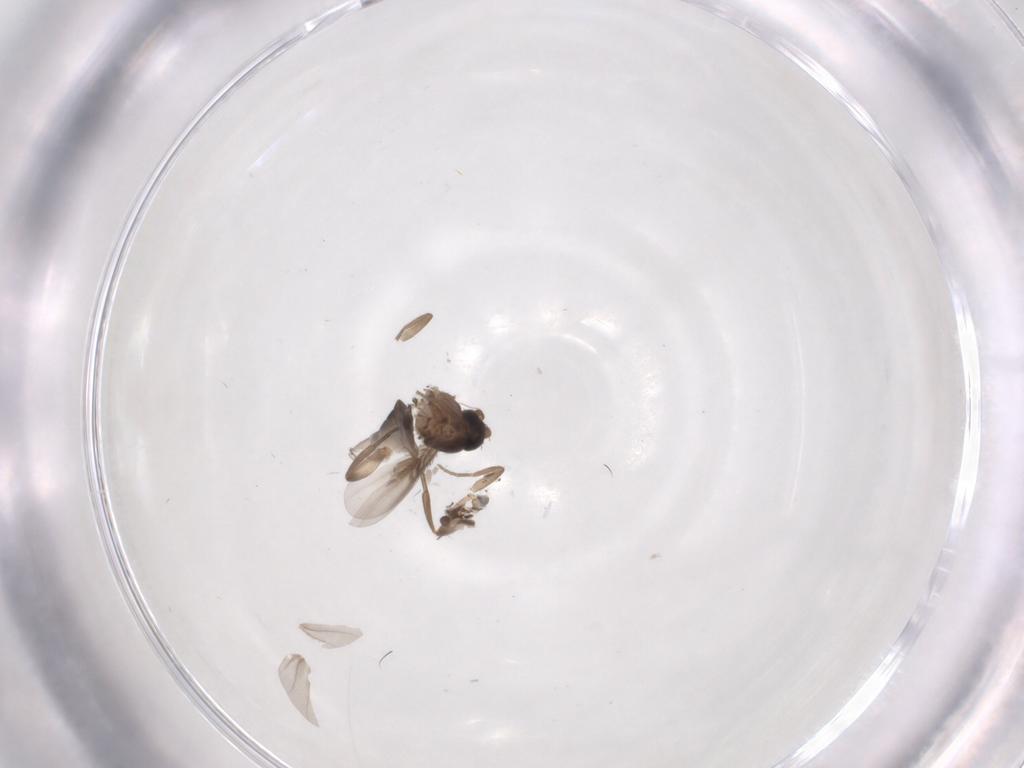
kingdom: Animalia
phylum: Arthropoda
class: Insecta
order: Diptera
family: Phoridae
